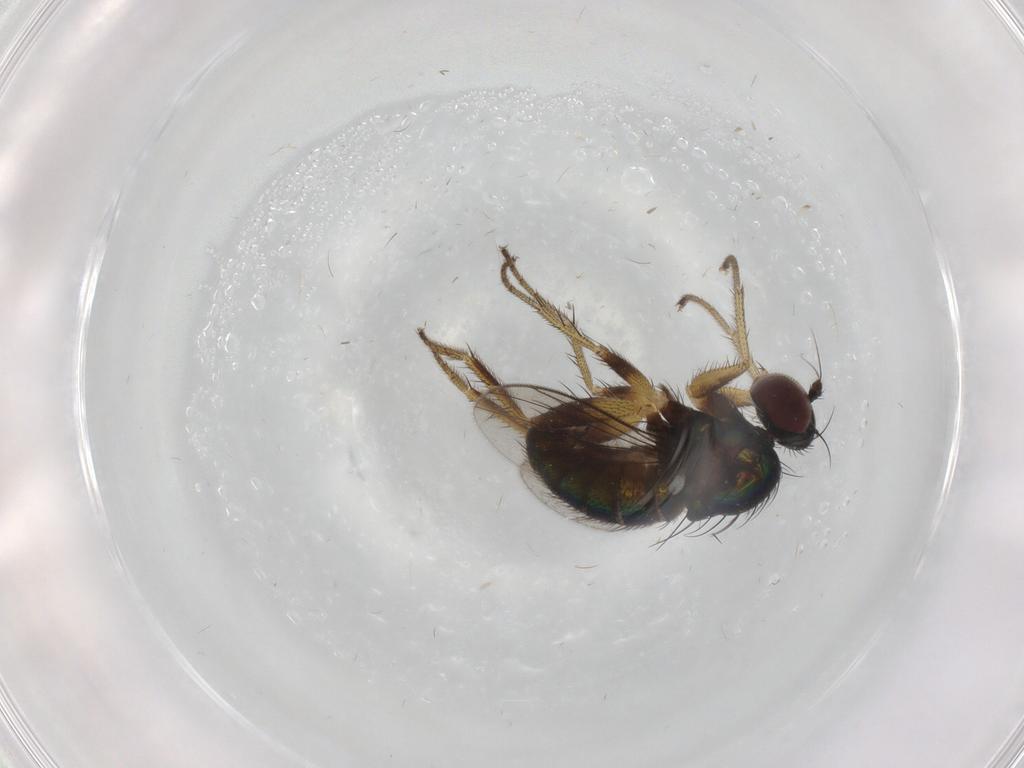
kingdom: Animalia
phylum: Arthropoda
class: Insecta
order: Diptera
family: Dolichopodidae
